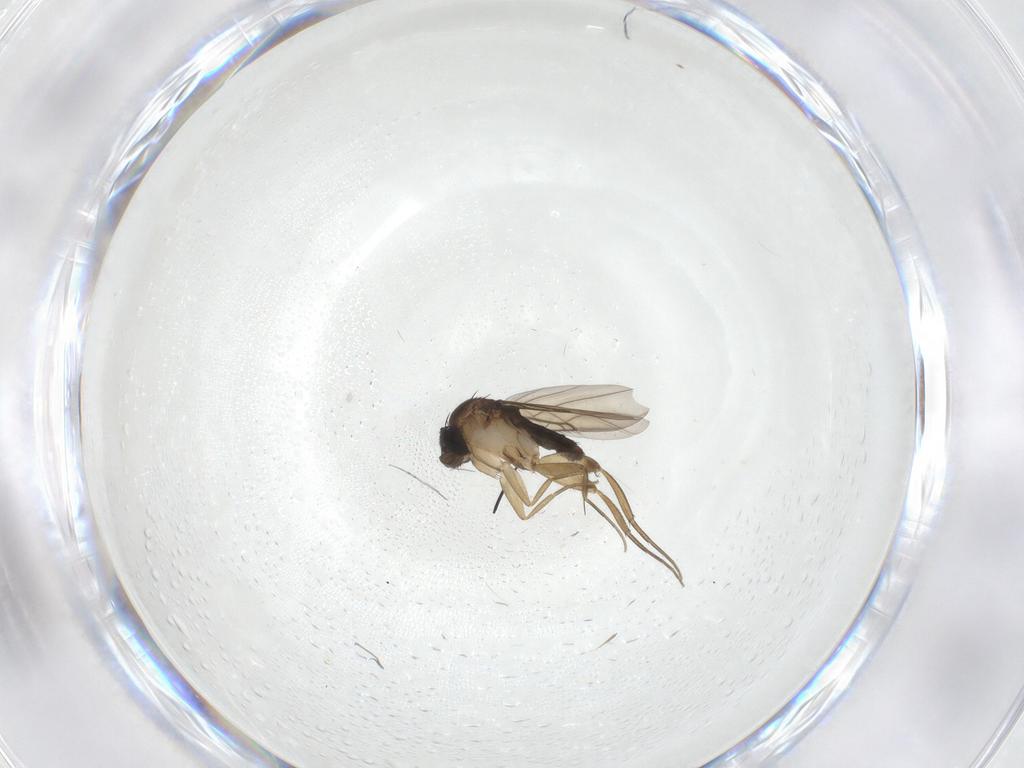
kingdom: Animalia
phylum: Arthropoda
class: Insecta
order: Diptera
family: Phoridae
